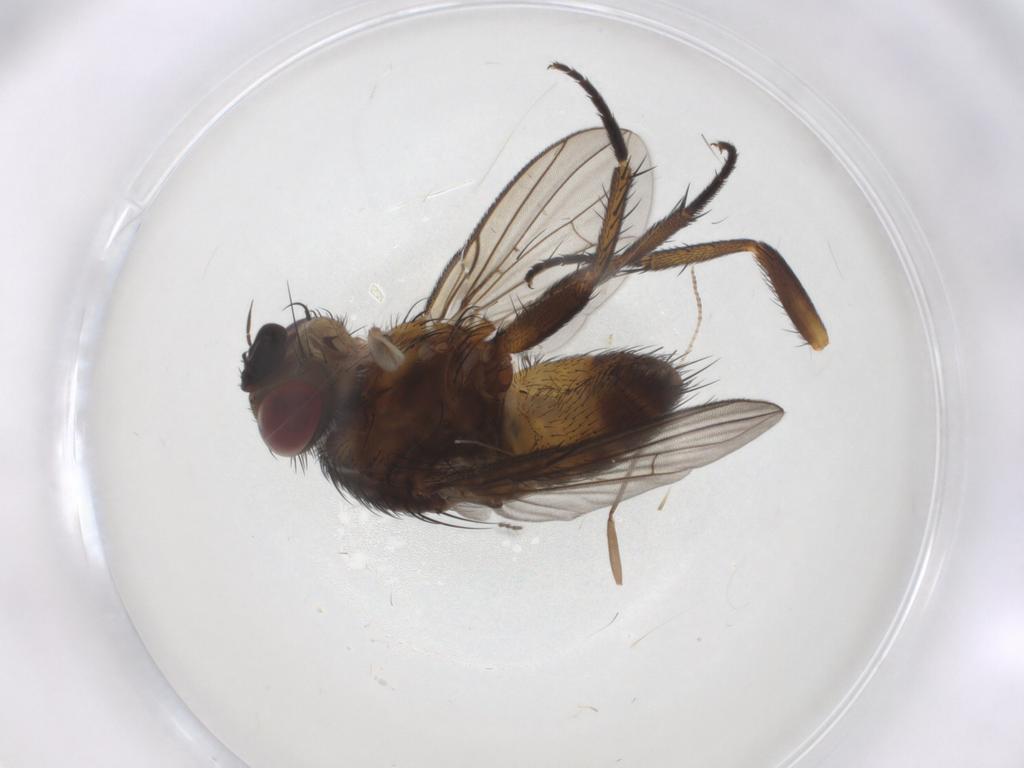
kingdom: Animalia
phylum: Arthropoda
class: Insecta
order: Diptera
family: Tachinidae
